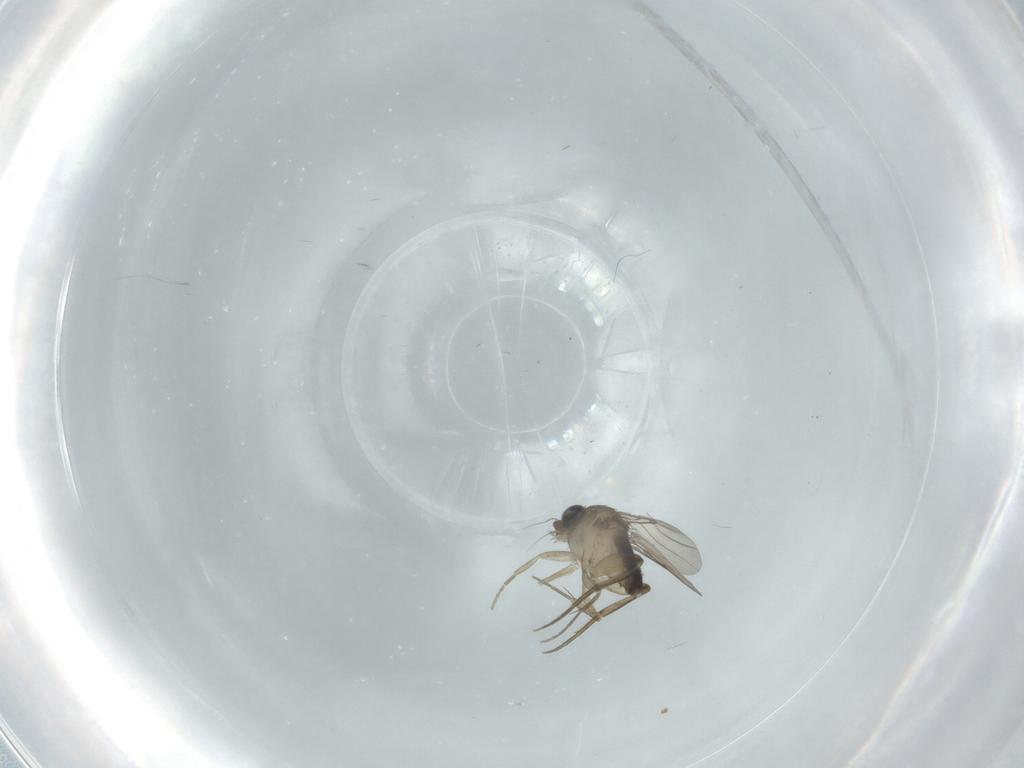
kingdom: Animalia
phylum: Arthropoda
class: Insecta
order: Diptera
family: Phoridae
